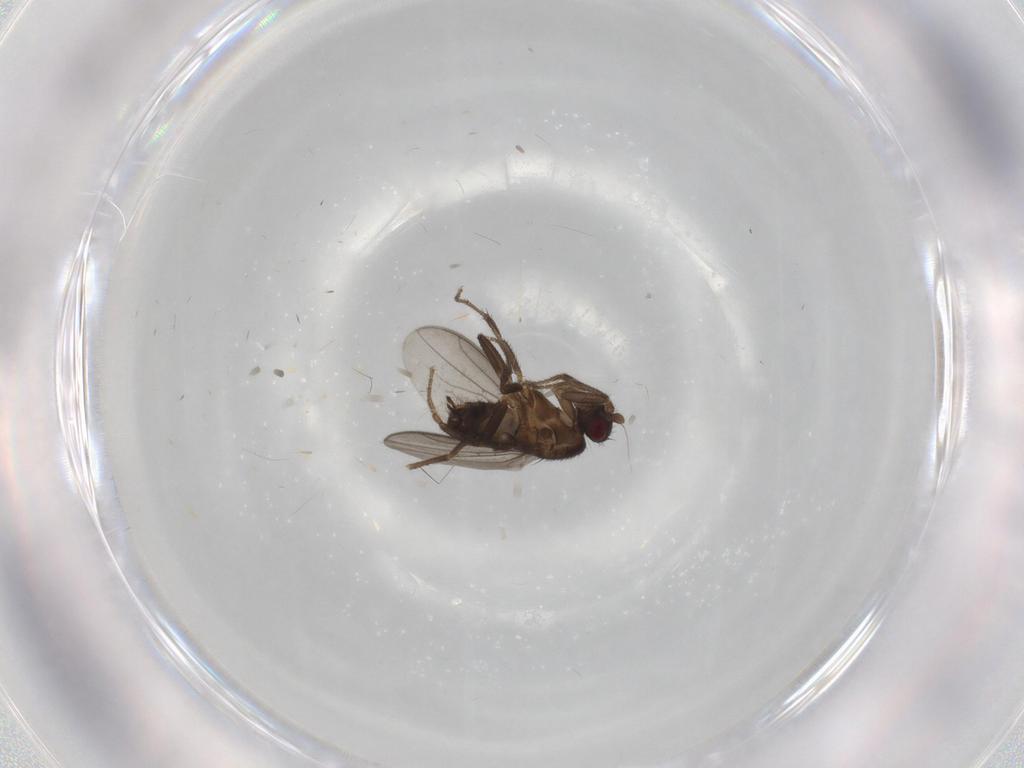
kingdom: Animalia
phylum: Arthropoda
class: Insecta
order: Diptera
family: Sphaeroceridae
